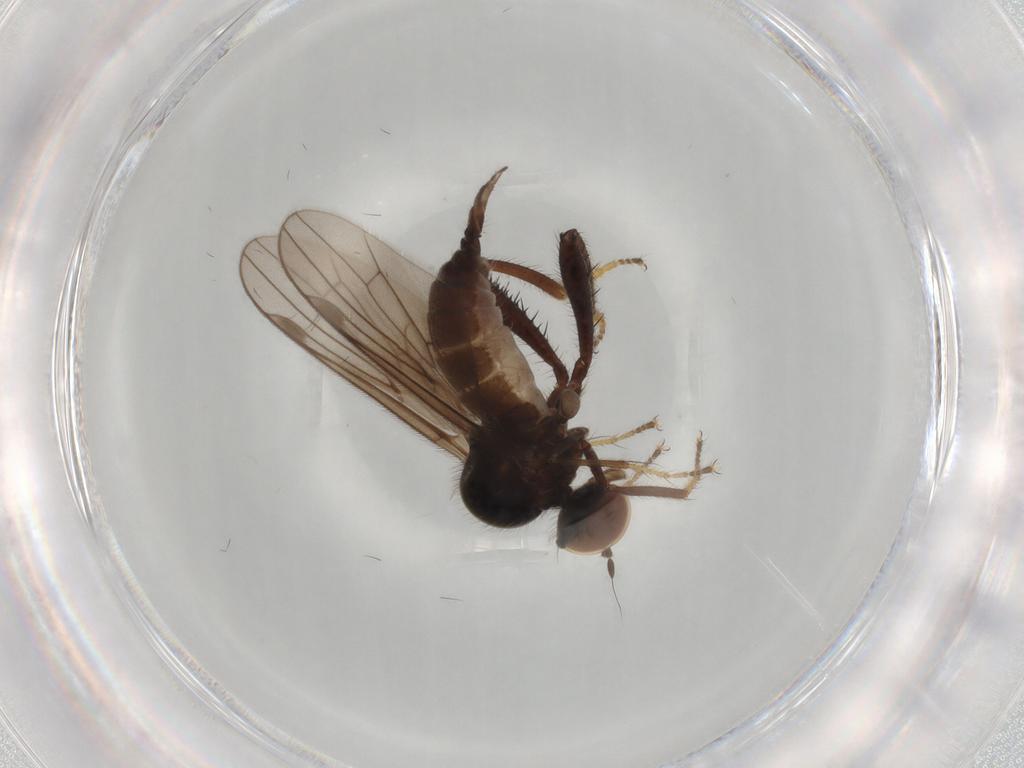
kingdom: Animalia
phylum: Arthropoda
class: Insecta
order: Diptera
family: Hybotidae
